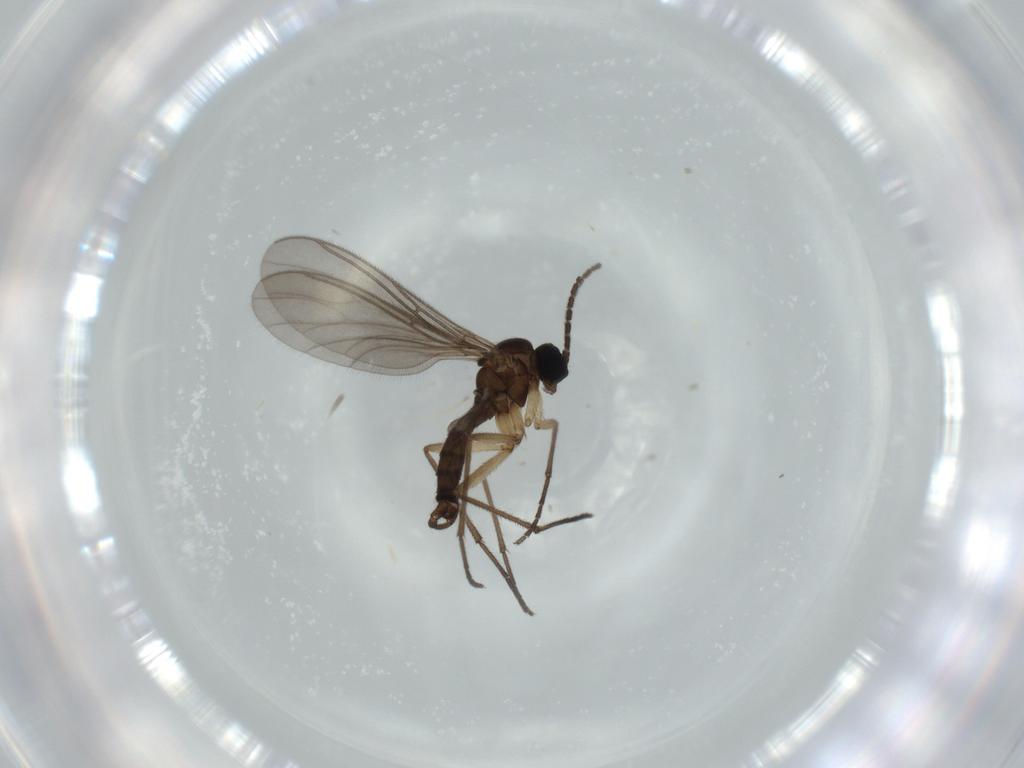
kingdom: Animalia
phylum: Arthropoda
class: Insecta
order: Diptera
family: Sciaridae
